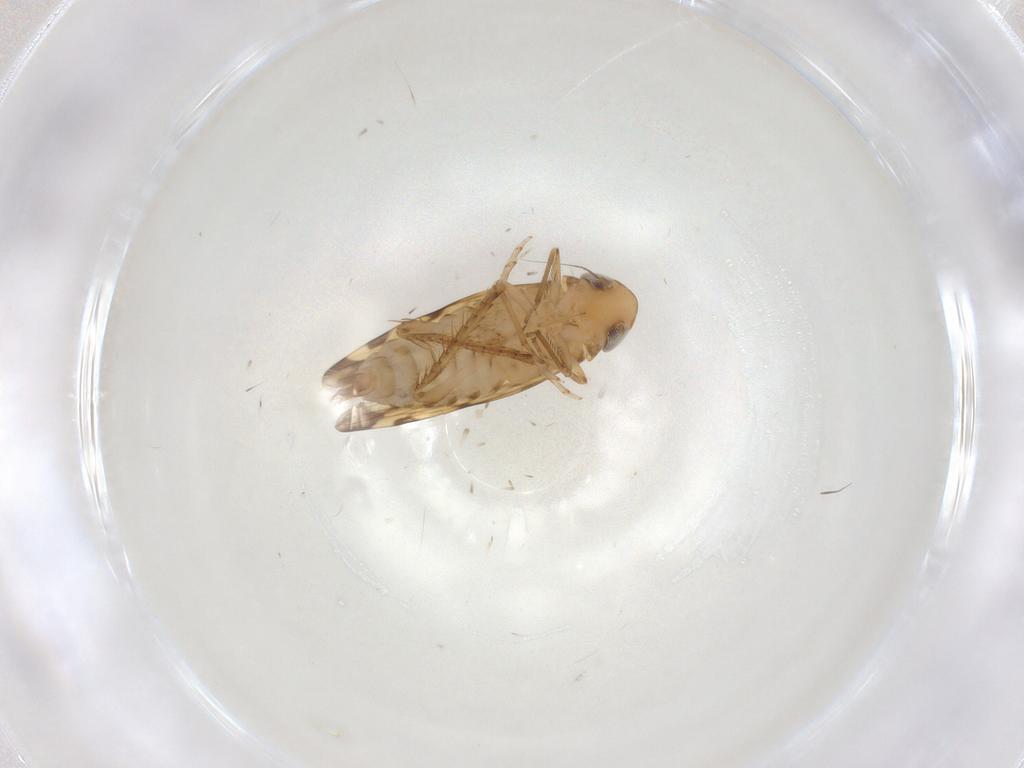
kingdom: Animalia
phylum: Arthropoda
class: Insecta
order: Hemiptera
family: Cicadellidae
